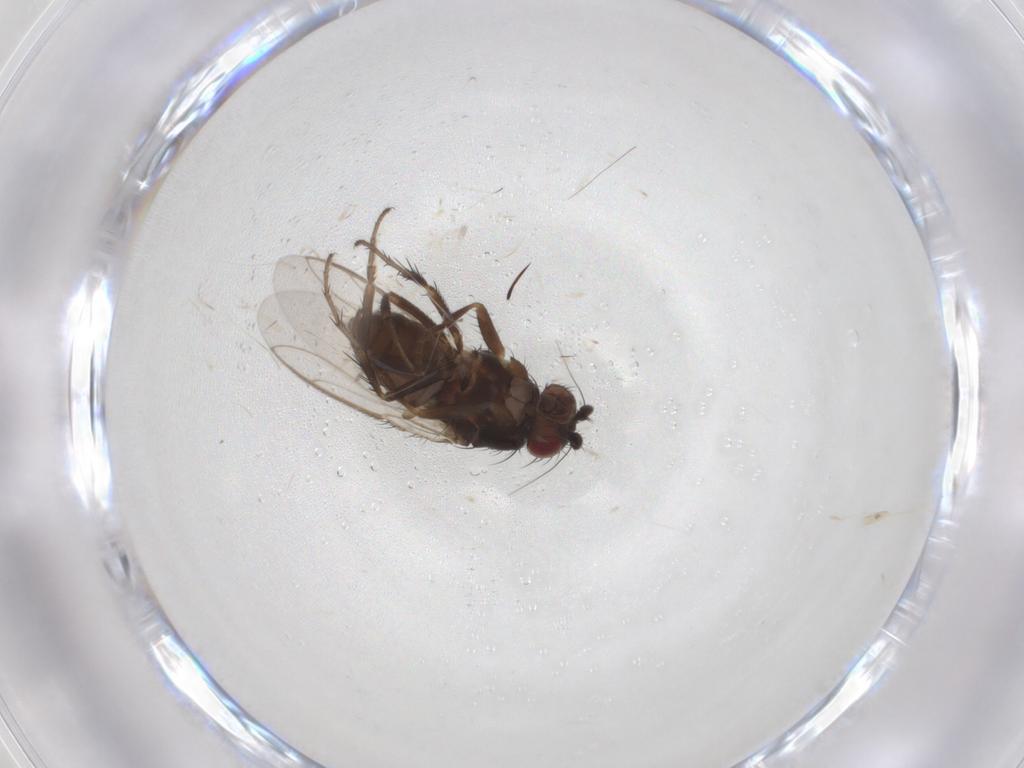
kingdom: Animalia
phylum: Arthropoda
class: Insecta
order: Diptera
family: Sphaeroceridae
